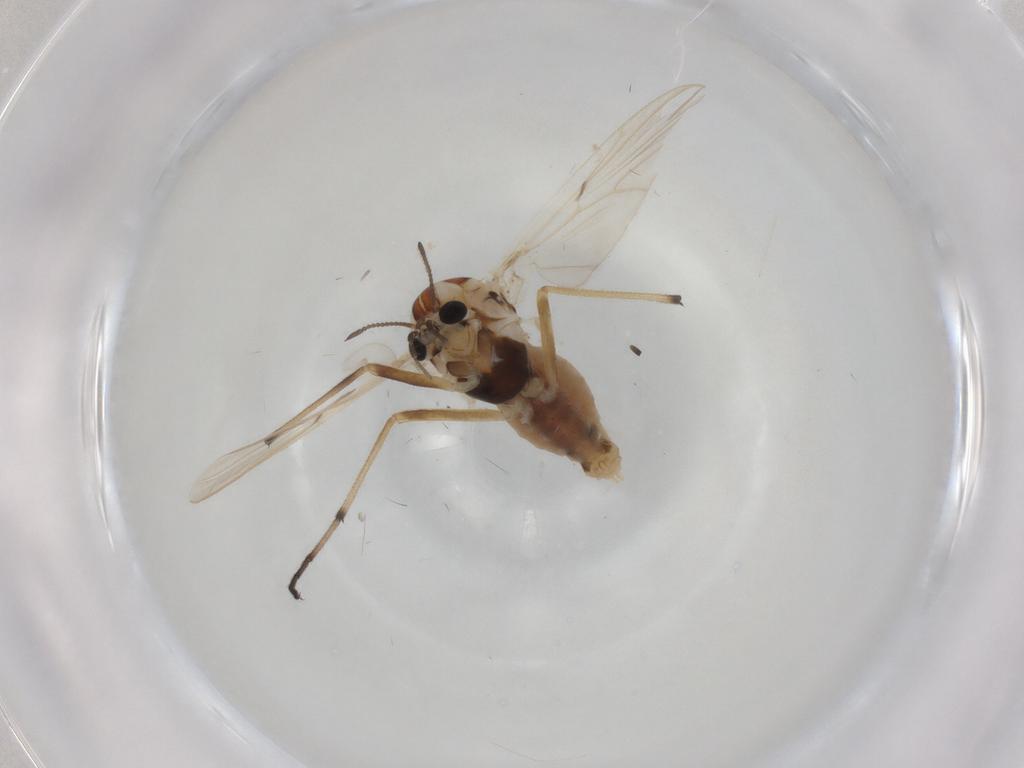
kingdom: Animalia
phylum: Arthropoda
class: Insecta
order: Diptera
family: Chironomidae
